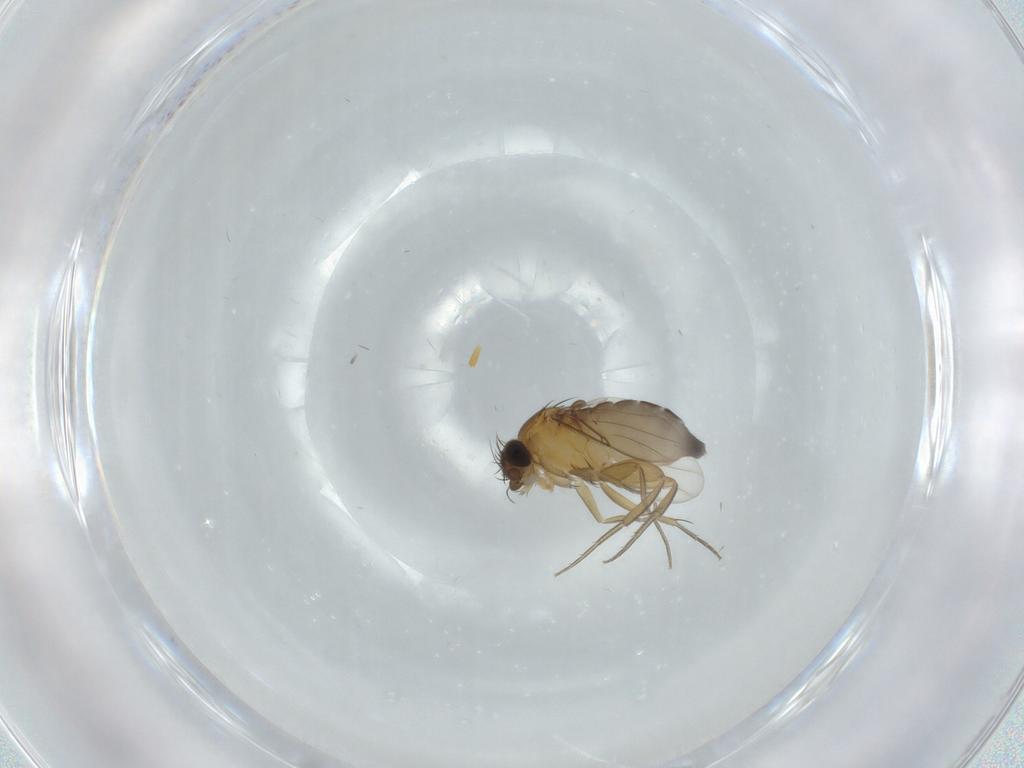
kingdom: Animalia
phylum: Arthropoda
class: Insecta
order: Diptera
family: Phoridae
